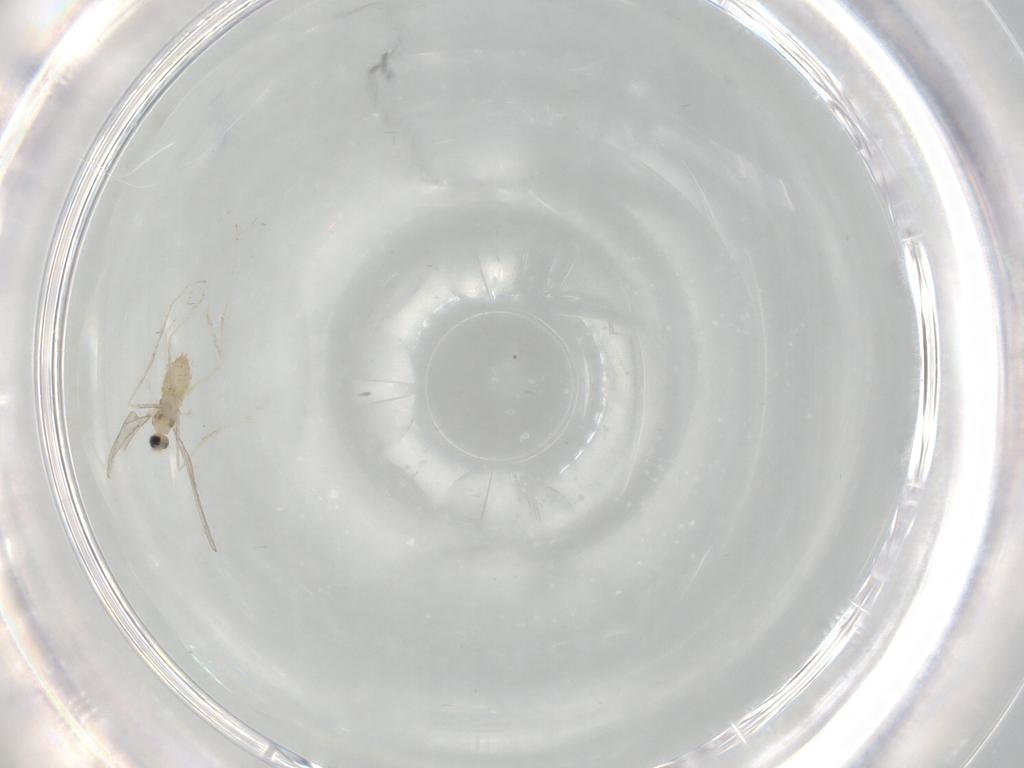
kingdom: Animalia
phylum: Arthropoda
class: Insecta
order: Diptera
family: Cecidomyiidae
